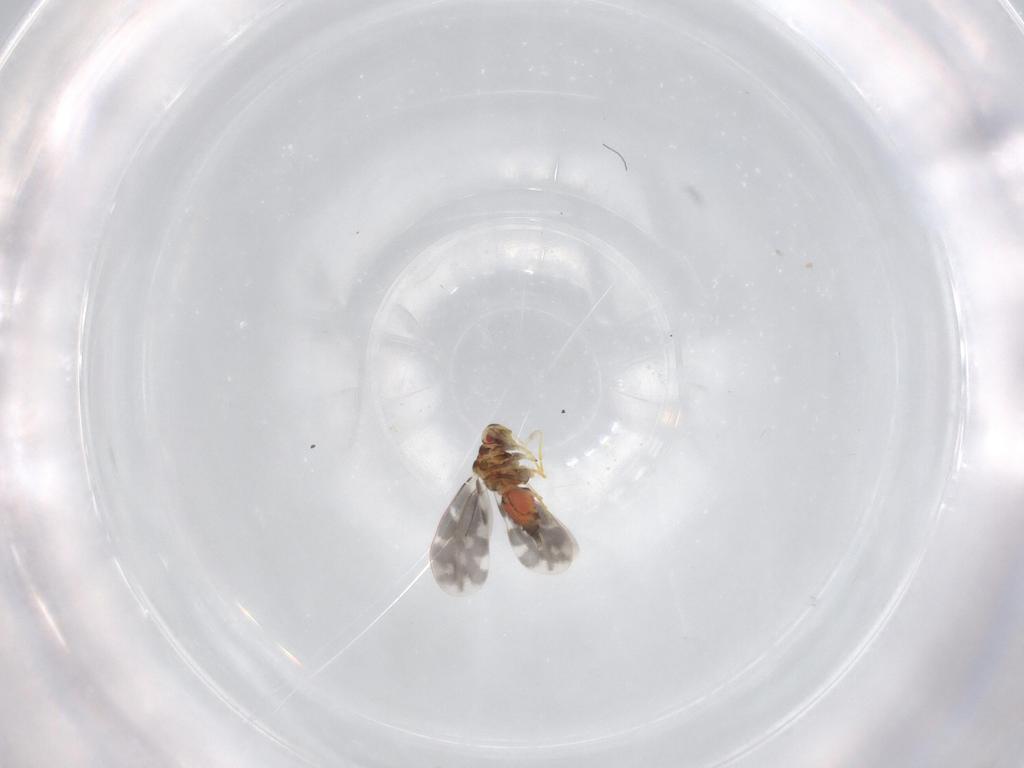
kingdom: Animalia
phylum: Arthropoda
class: Insecta
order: Hemiptera
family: Aleyrodidae
